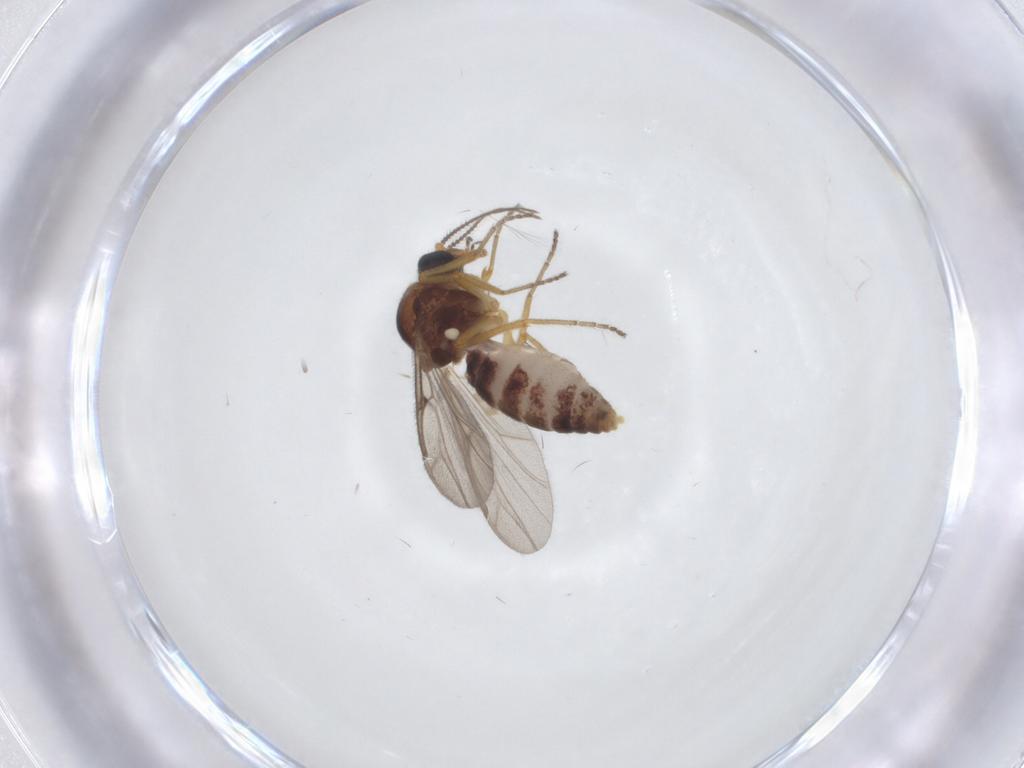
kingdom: Animalia
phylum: Arthropoda
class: Insecta
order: Diptera
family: Ceratopogonidae
